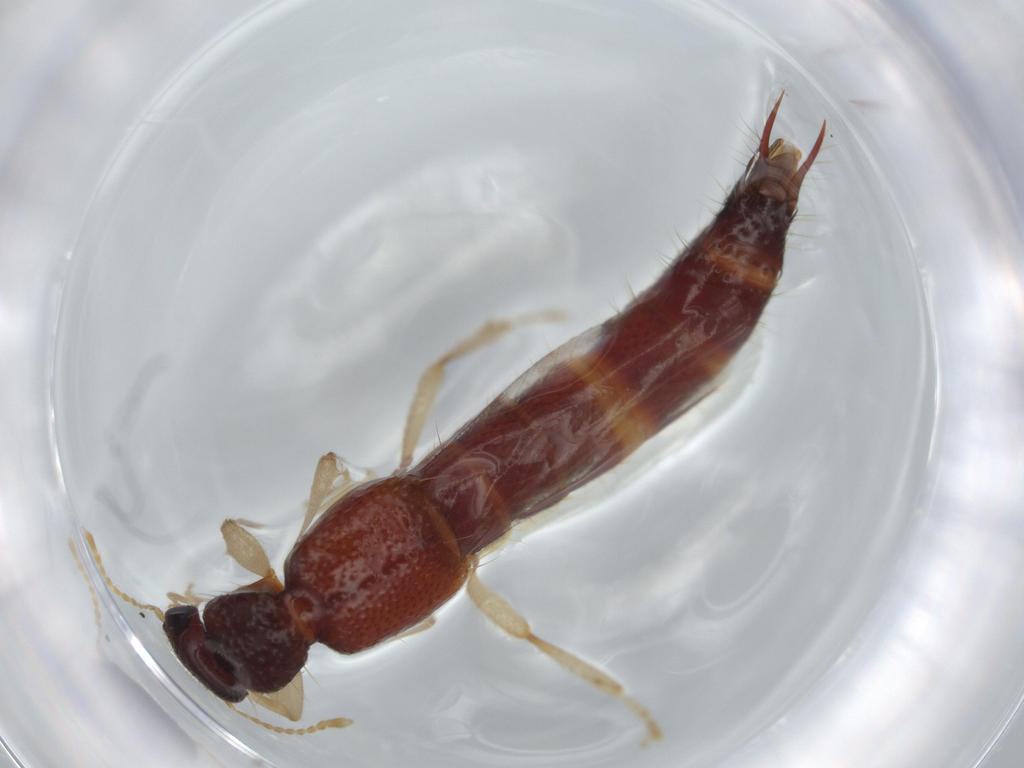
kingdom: Animalia
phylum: Arthropoda
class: Insecta
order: Coleoptera
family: Staphylinidae
